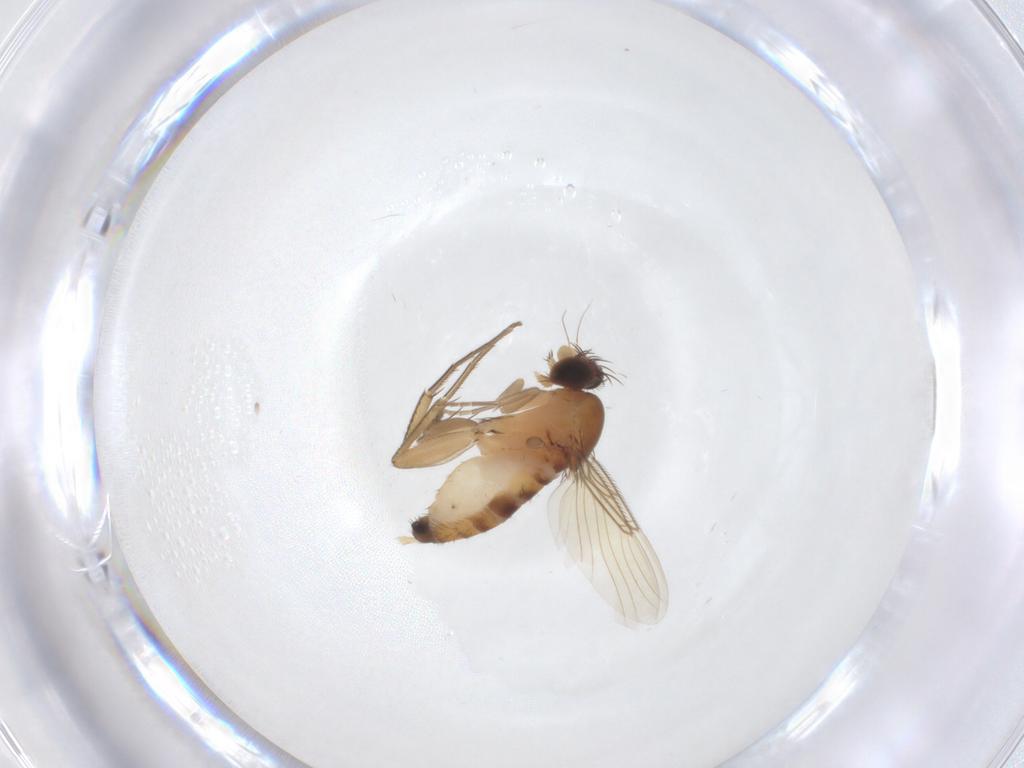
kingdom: Animalia
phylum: Arthropoda
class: Insecta
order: Diptera
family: Phoridae
